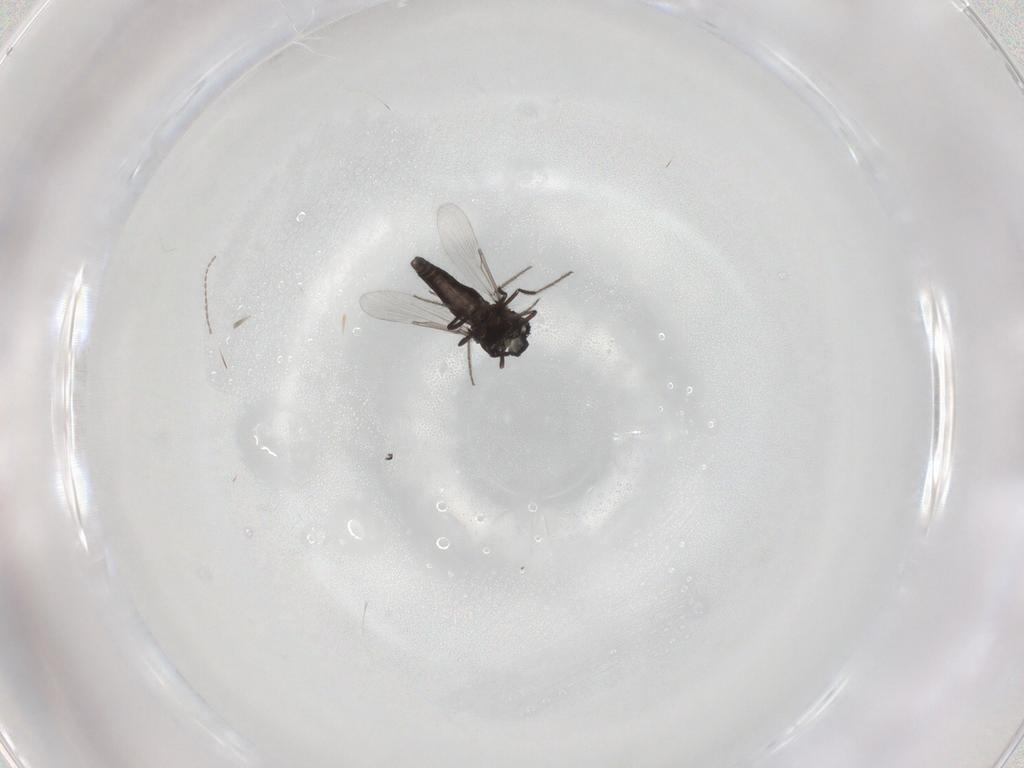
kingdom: Animalia
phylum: Arthropoda
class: Insecta
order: Diptera
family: Ceratopogonidae
